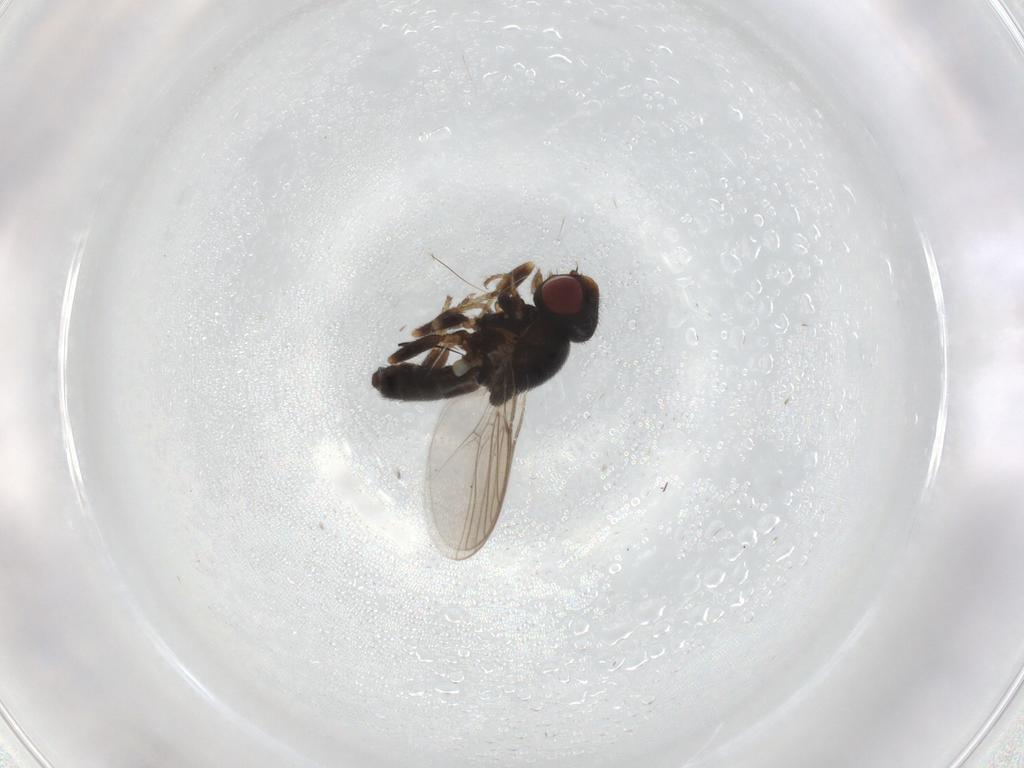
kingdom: Animalia
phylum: Arthropoda
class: Insecta
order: Diptera
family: Chloropidae
